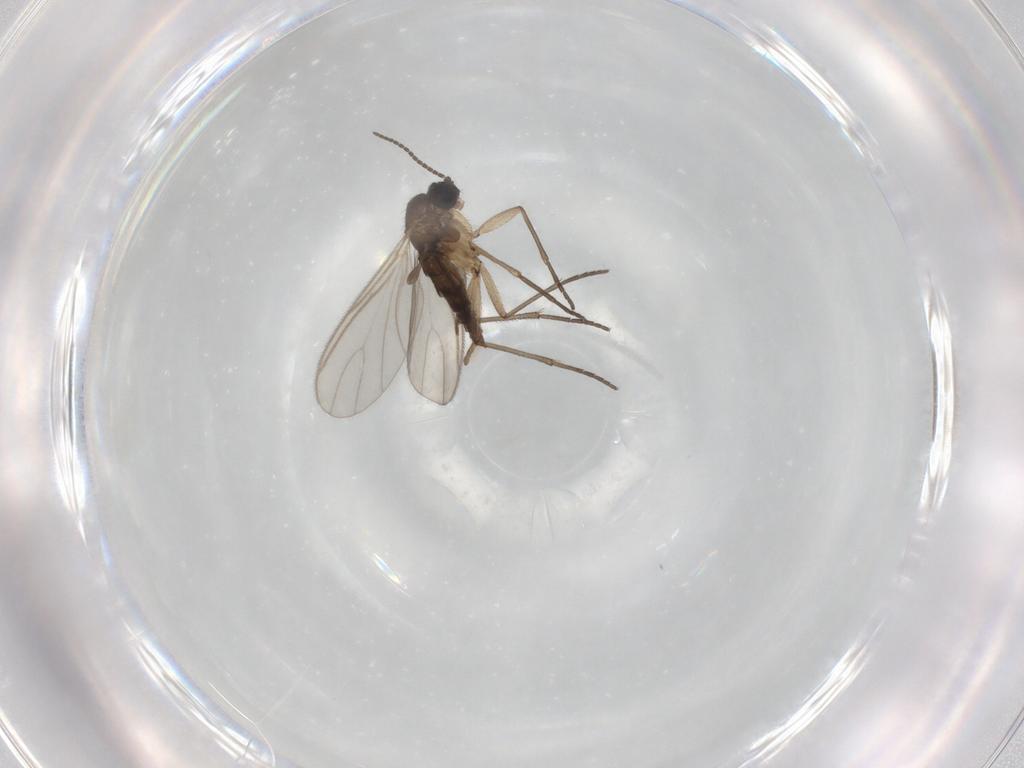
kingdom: Animalia
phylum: Arthropoda
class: Insecta
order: Diptera
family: Sciaridae
